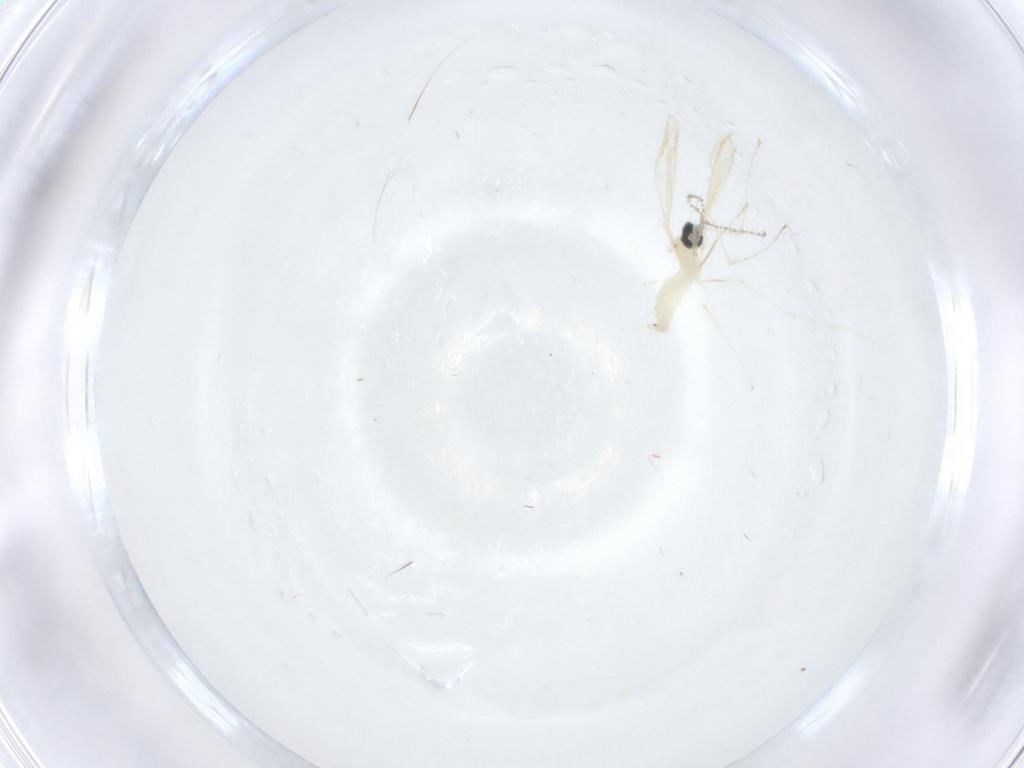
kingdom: Animalia
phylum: Arthropoda
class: Insecta
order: Diptera
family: Cecidomyiidae
